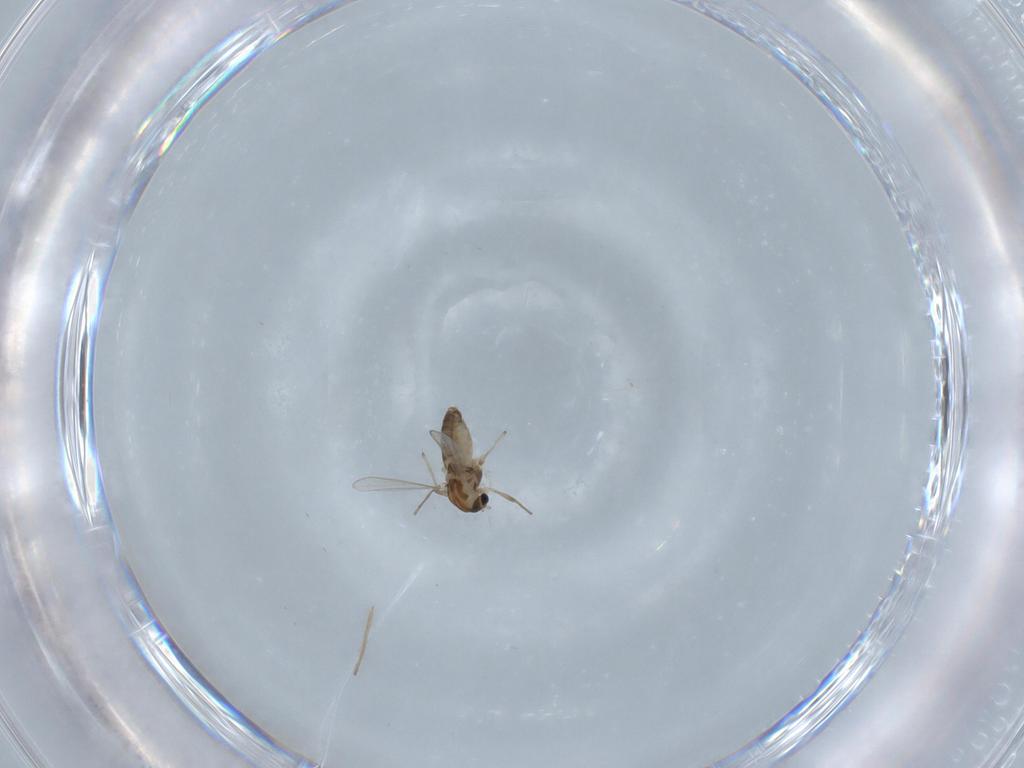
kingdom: Animalia
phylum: Arthropoda
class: Insecta
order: Diptera
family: Chironomidae
